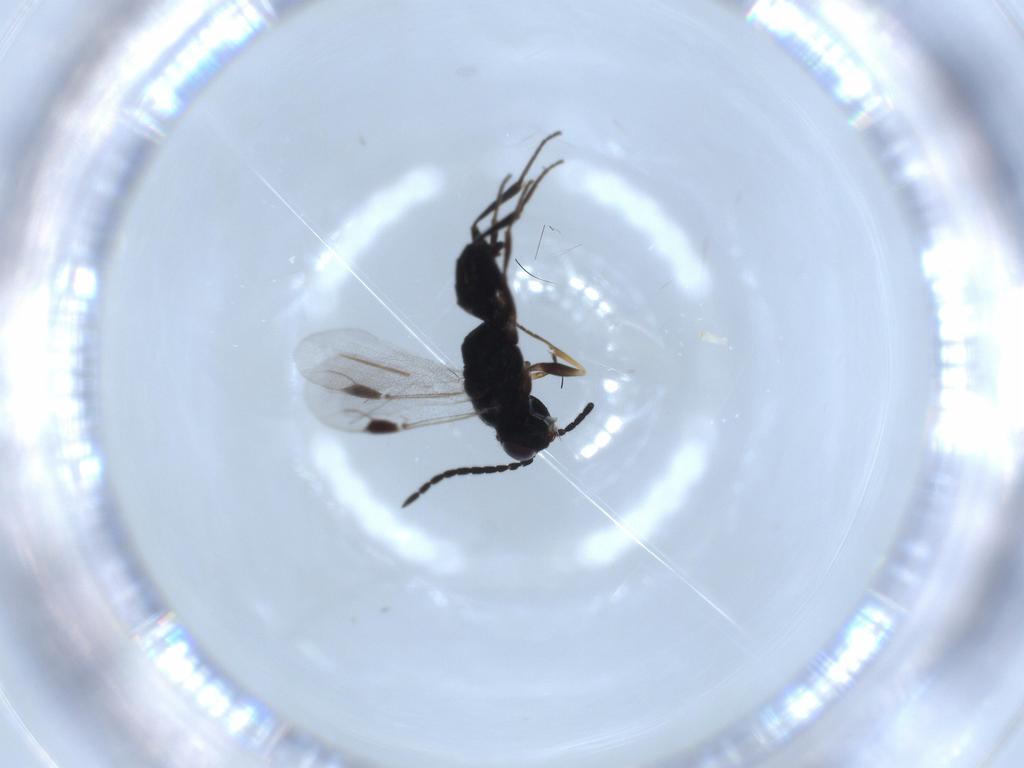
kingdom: Animalia
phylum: Arthropoda
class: Insecta
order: Hymenoptera
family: Dryinidae
